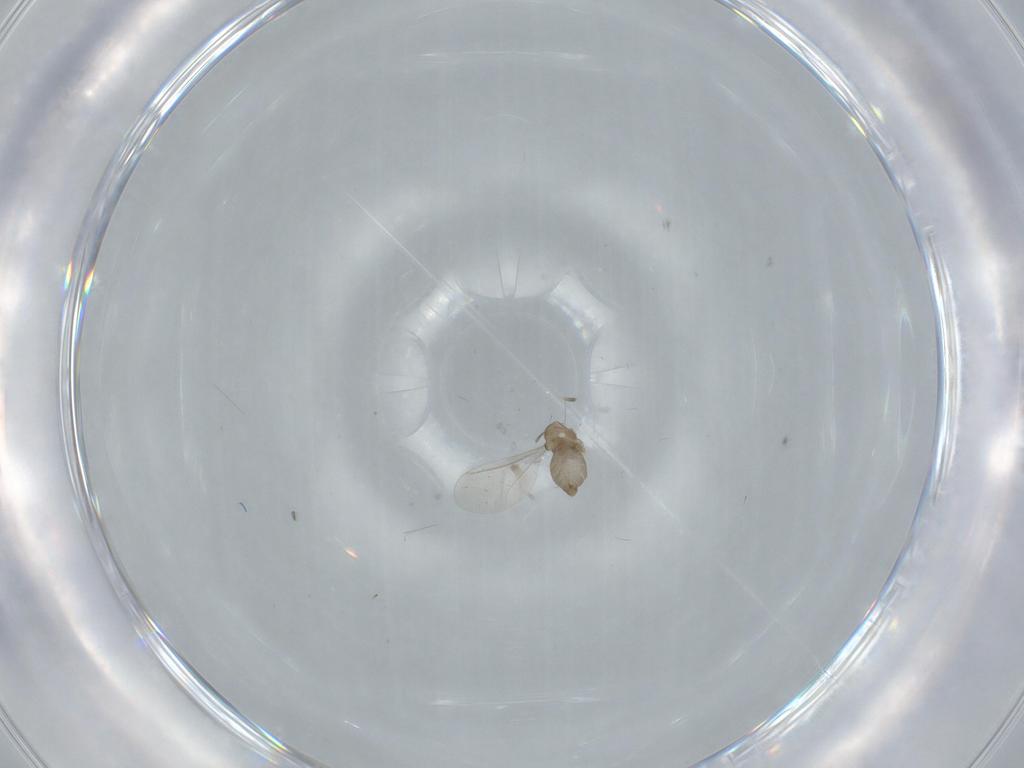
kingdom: Animalia
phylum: Arthropoda
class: Insecta
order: Diptera
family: Cecidomyiidae
